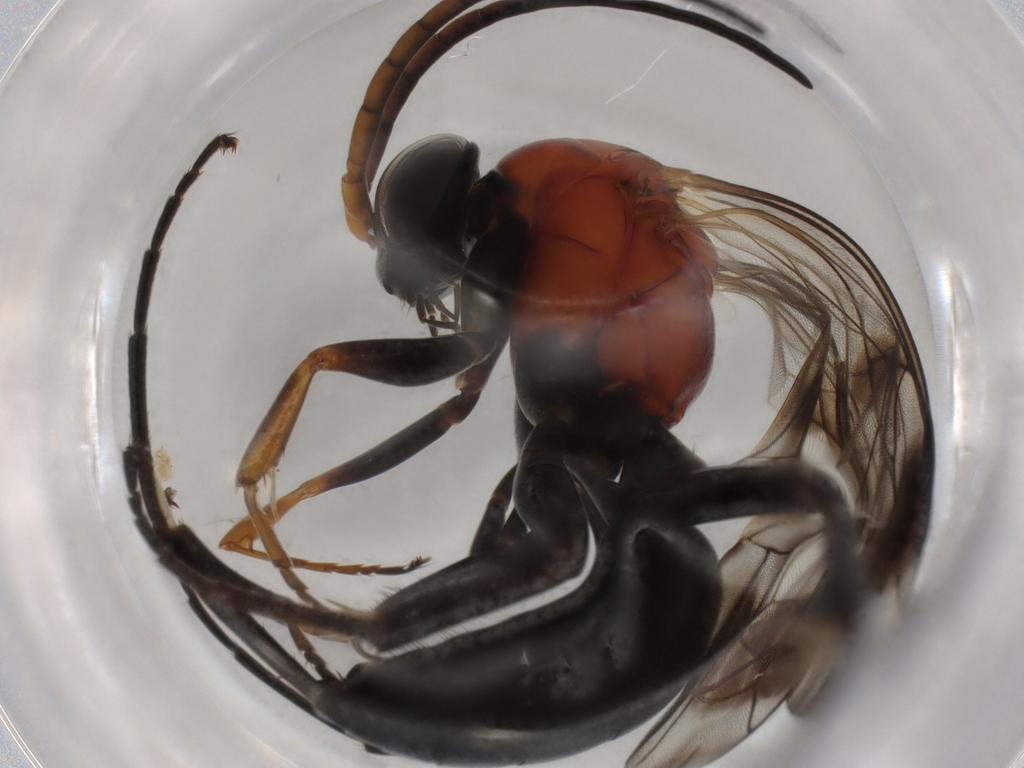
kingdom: Animalia
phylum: Arthropoda
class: Insecta
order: Hymenoptera
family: Pompilidae
